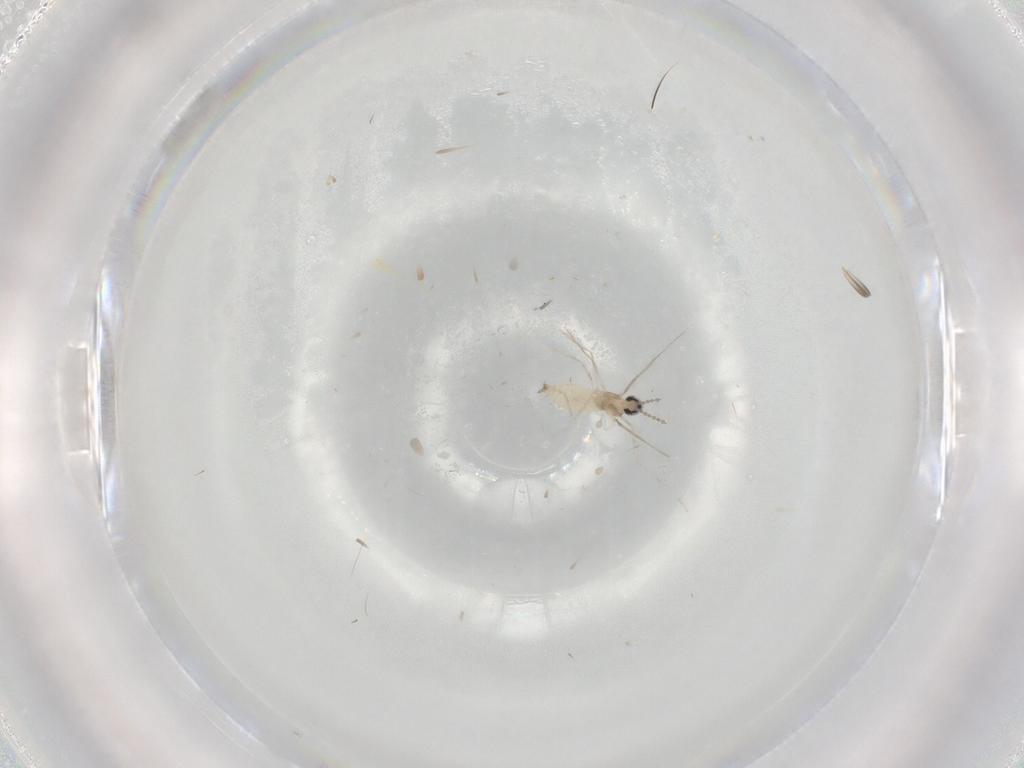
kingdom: Animalia
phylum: Arthropoda
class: Insecta
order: Diptera
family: Cecidomyiidae
